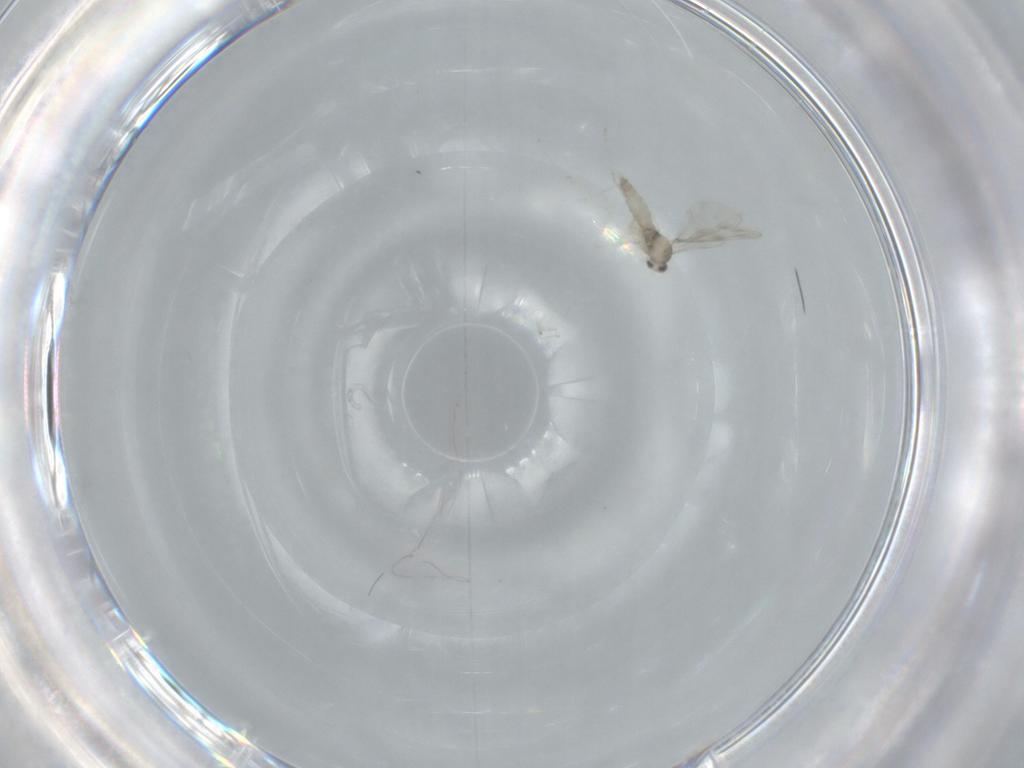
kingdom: Animalia
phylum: Arthropoda
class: Insecta
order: Diptera
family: Cecidomyiidae
